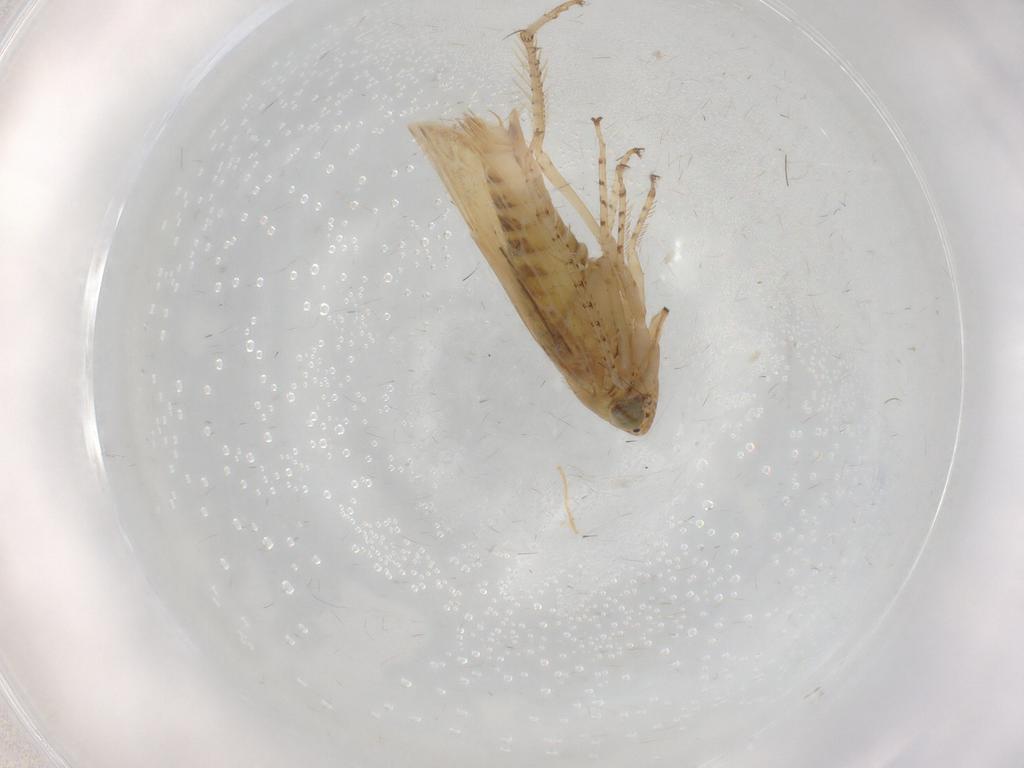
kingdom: Animalia
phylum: Arthropoda
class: Insecta
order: Hemiptera
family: Cicadellidae
